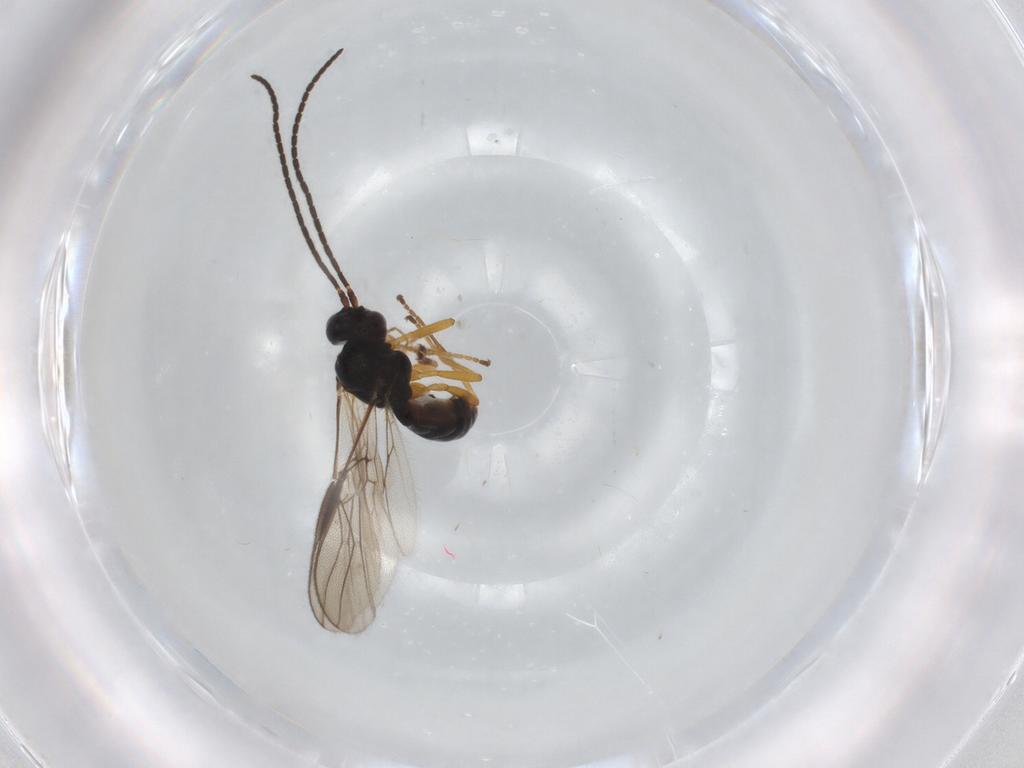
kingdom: Animalia
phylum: Arthropoda
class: Insecta
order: Hymenoptera
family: Braconidae
